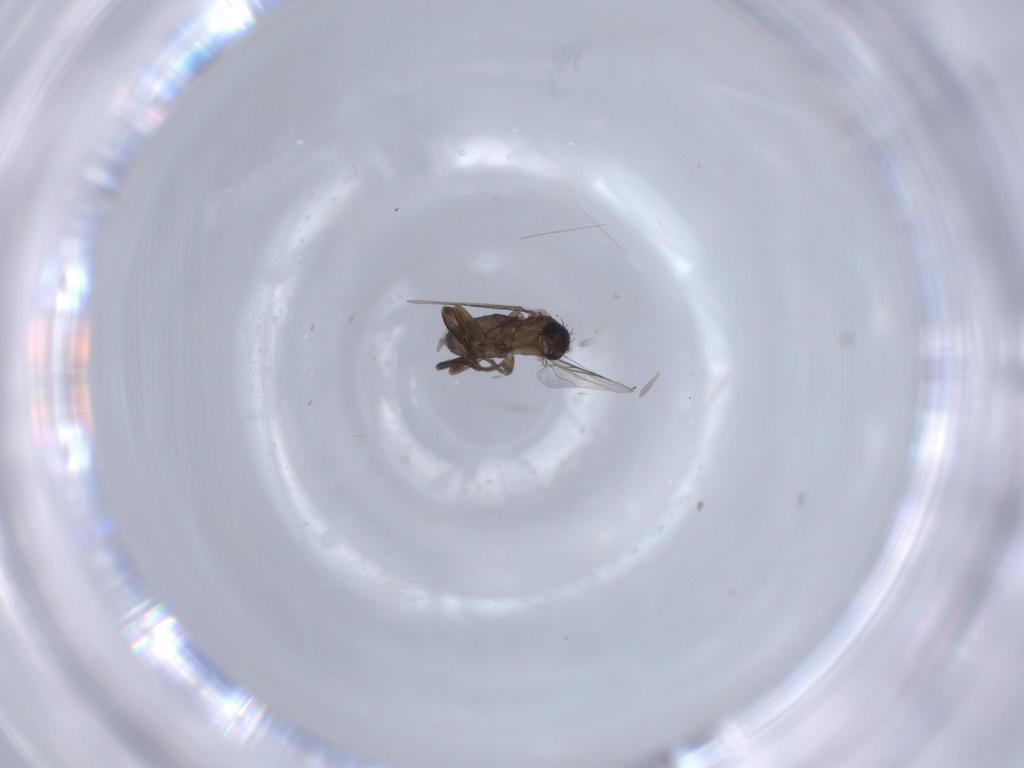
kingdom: Animalia
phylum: Arthropoda
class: Insecta
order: Diptera
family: Phoridae
